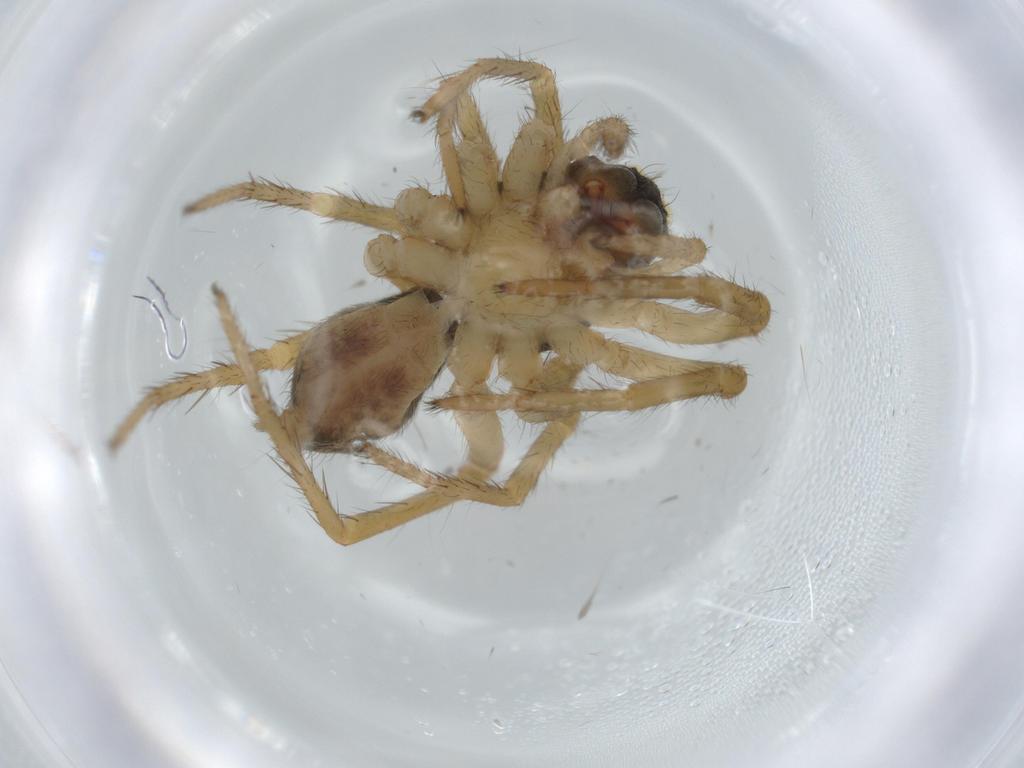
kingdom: Animalia
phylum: Arthropoda
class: Arachnida
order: Araneae
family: Lycosidae
